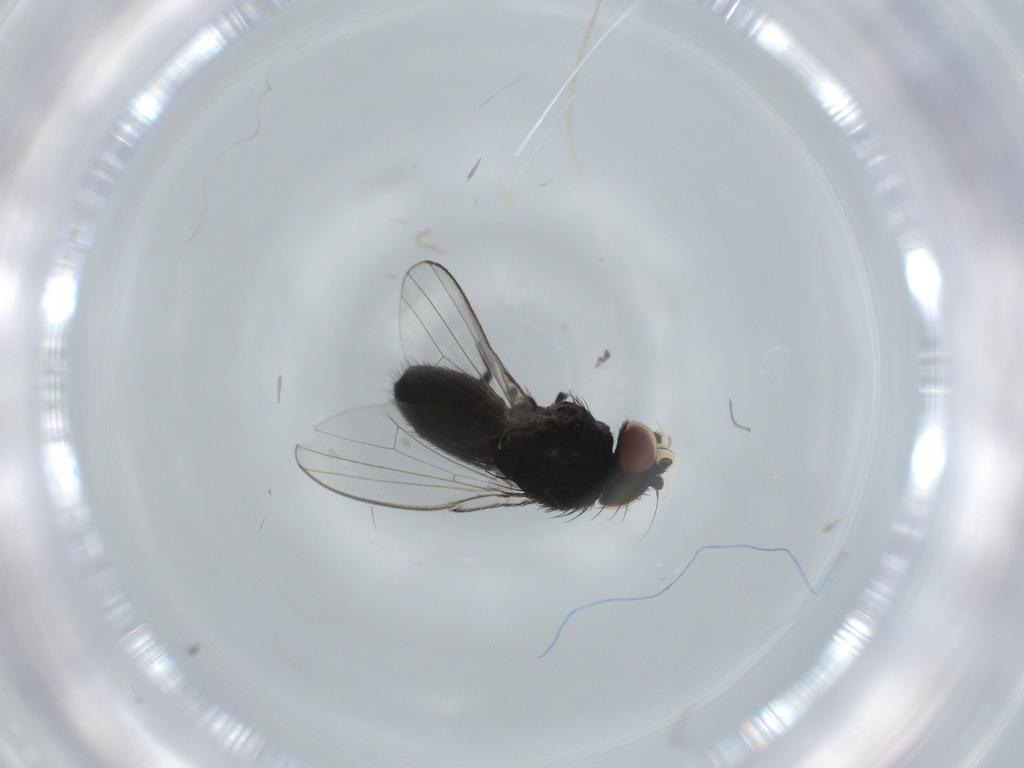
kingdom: Animalia
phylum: Arthropoda
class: Insecta
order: Diptera
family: Milichiidae
